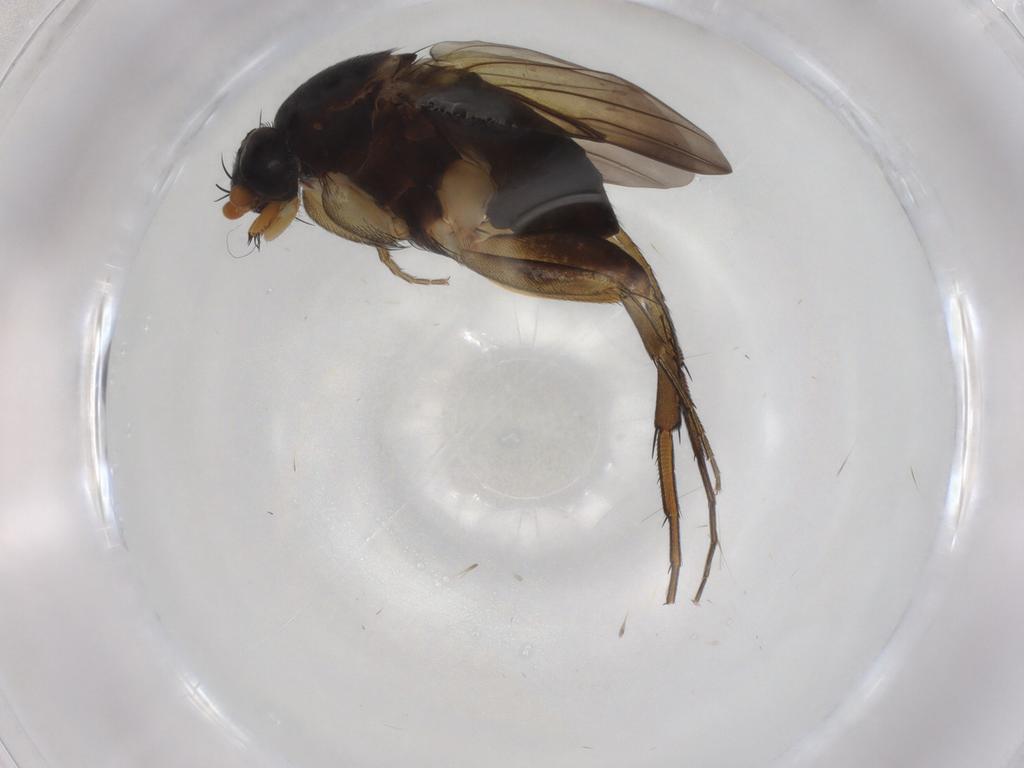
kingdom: Animalia
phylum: Arthropoda
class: Insecta
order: Diptera
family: Phoridae
